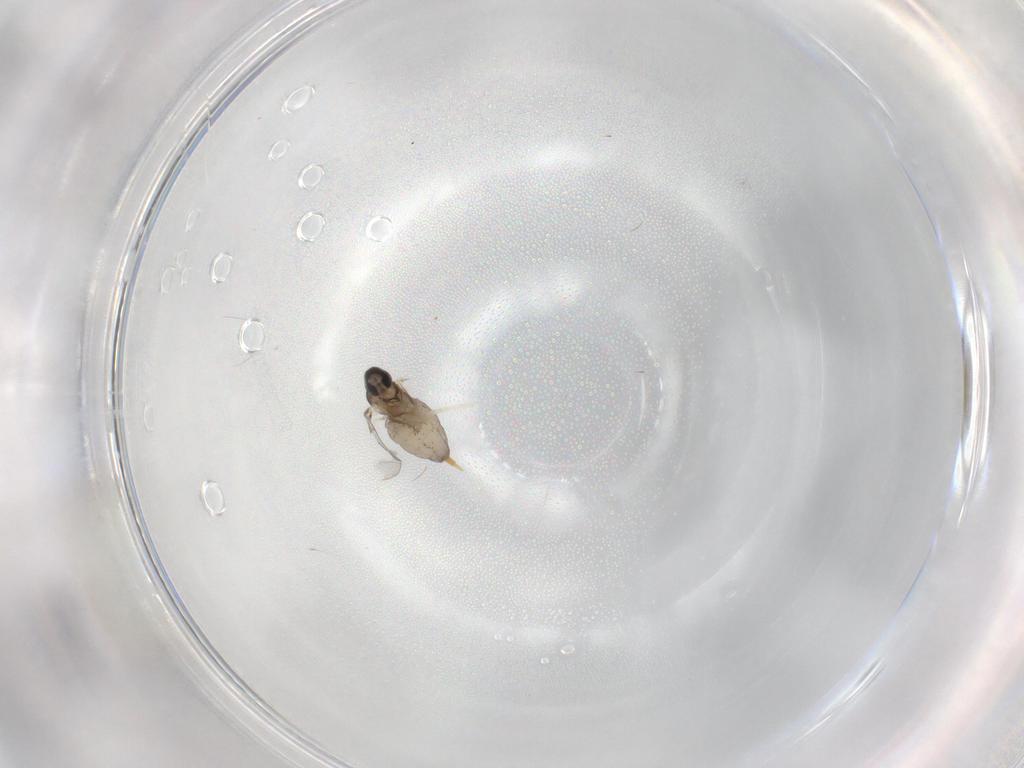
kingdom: Animalia
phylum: Arthropoda
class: Insecta
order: Diptera
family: Cecidomyiidae
